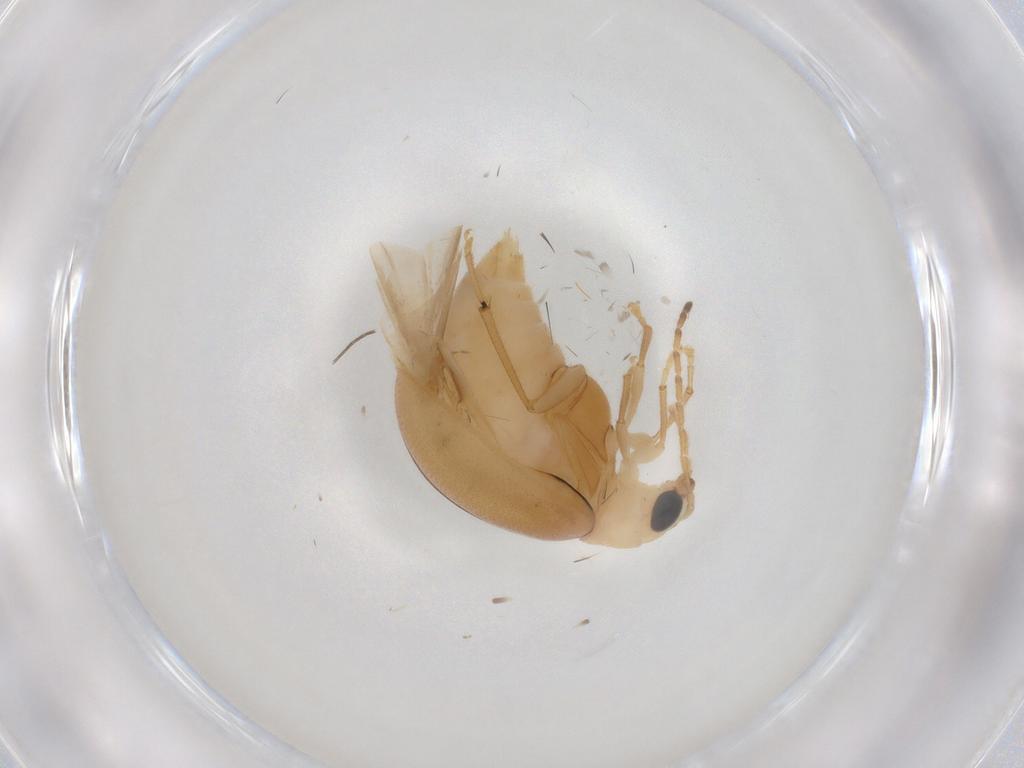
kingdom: Animalia
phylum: Arthropoda
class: Insecta
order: Coleoptera
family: Chrysomelidae
